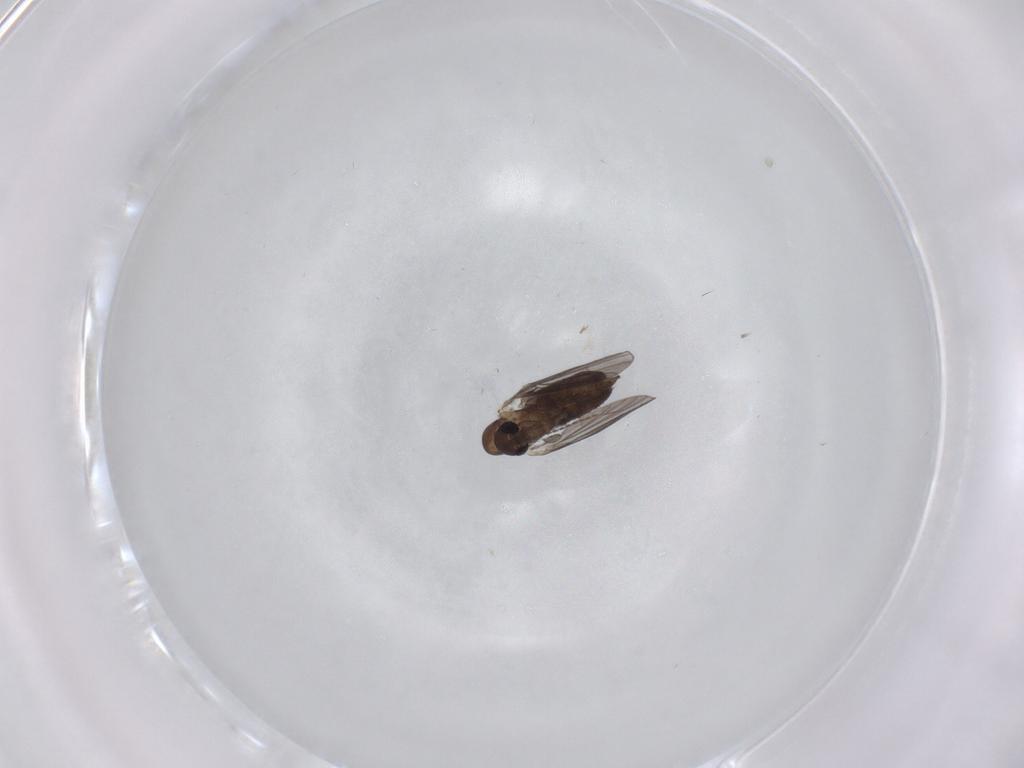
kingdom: Animalia
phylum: Arthropoda
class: Insecta
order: Diptera
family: Cecidomyiidae
